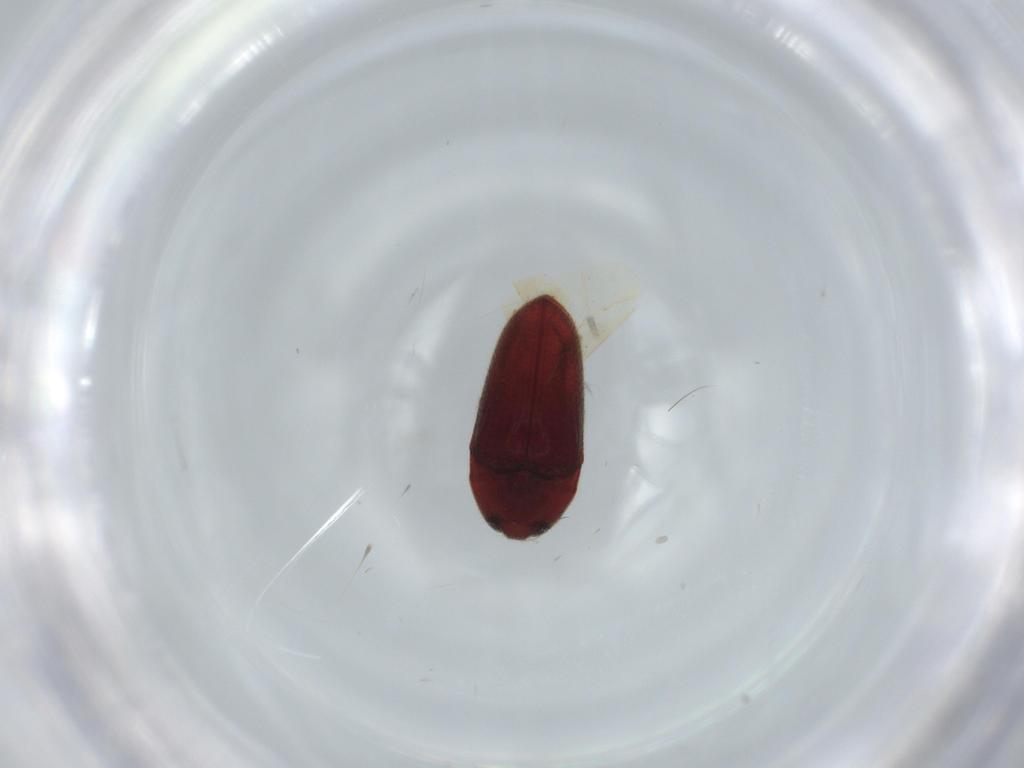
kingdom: Animalia
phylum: Arthropoda
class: Insecta
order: Coleoptera
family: Throscidae
